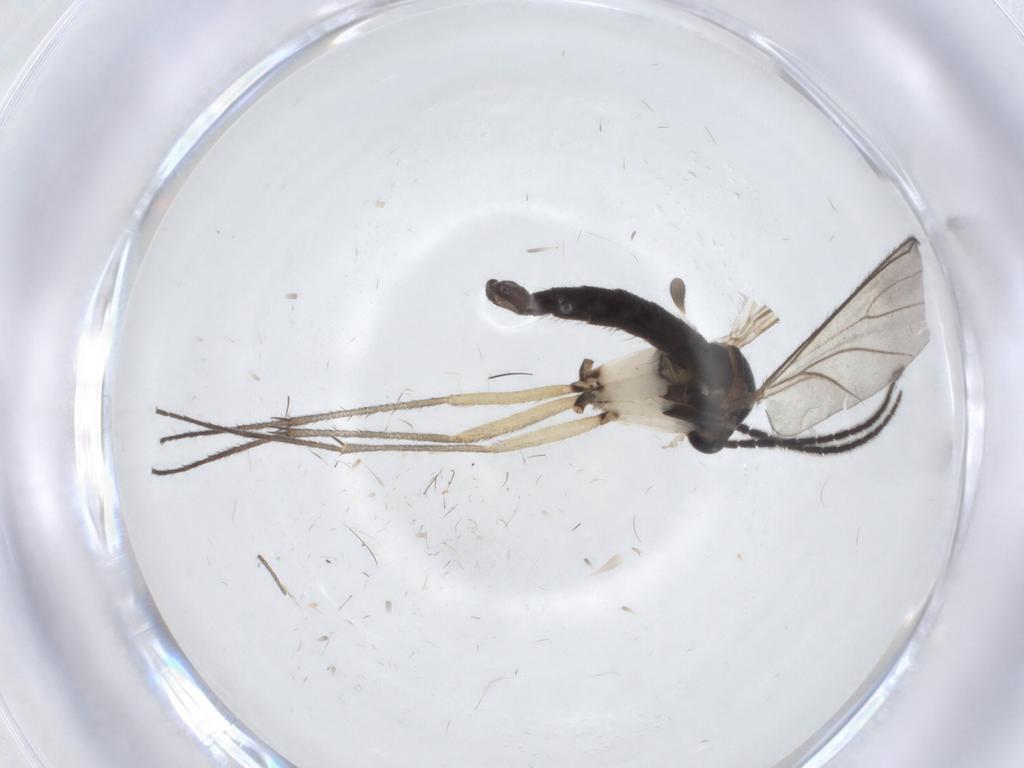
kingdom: Animalia
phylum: Arthropoda
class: Insecta
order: Diptera
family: Sciaridae
